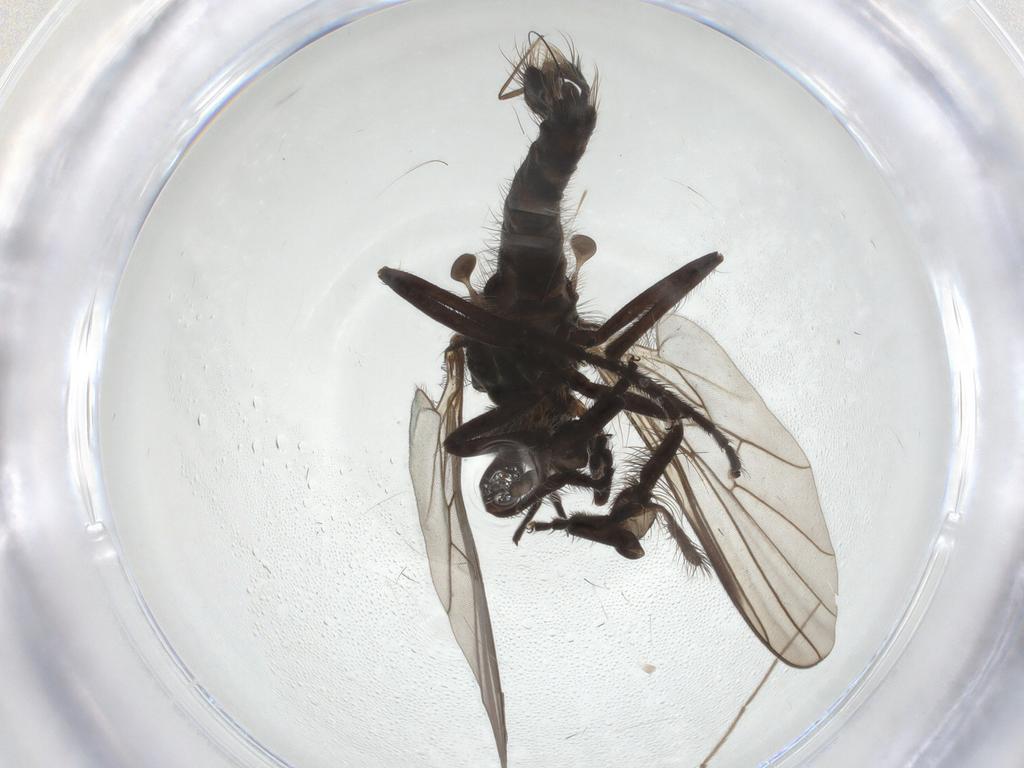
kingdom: Animalia
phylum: Arthropoda
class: Insecta
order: Diptera
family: Empididae
